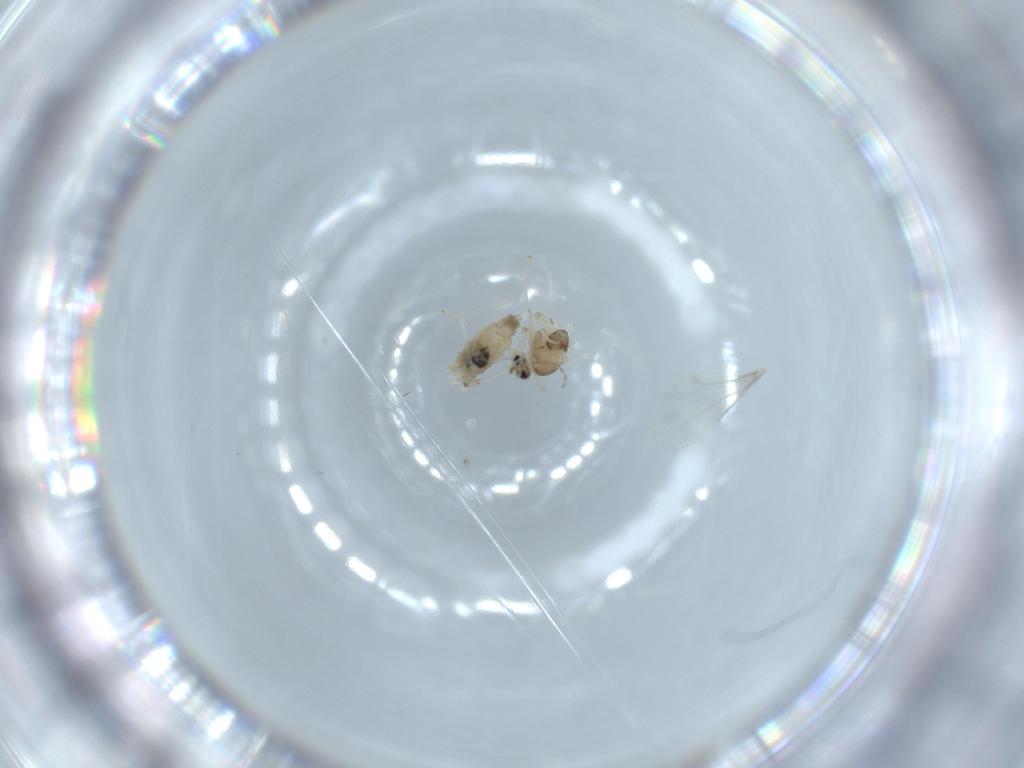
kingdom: Animalia
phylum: Arthropoda
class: Insecta
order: Diptera
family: Cecidomyiidae
